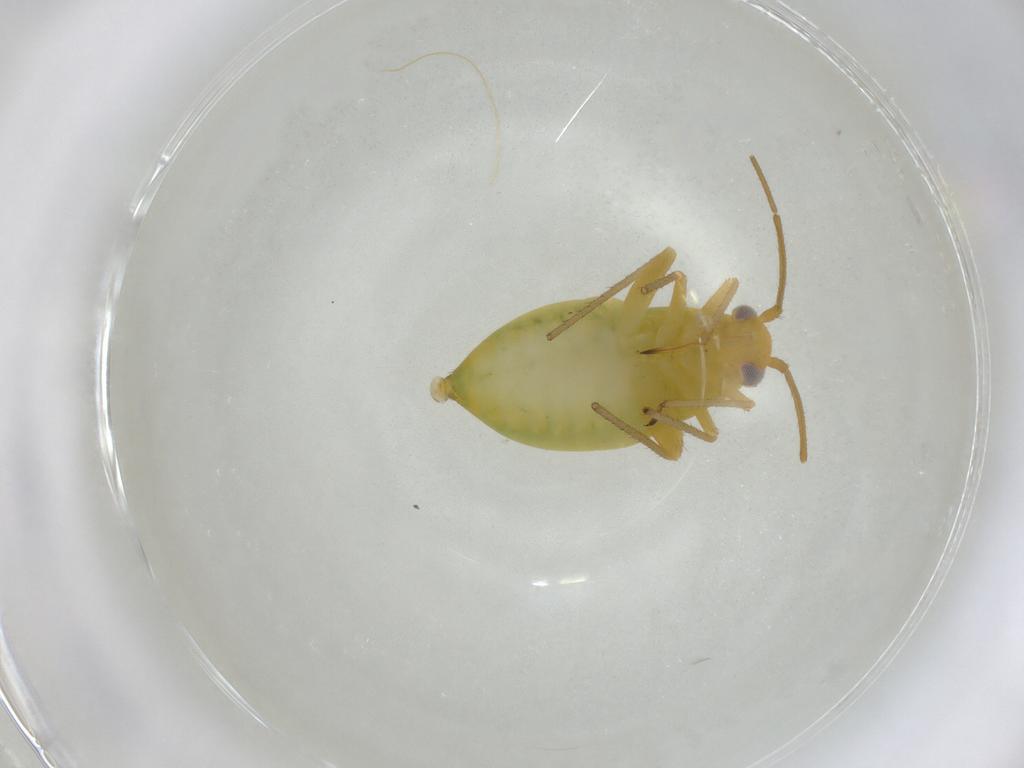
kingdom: Animalia
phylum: Arthropoda
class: Insecta
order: Hemiptera
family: Miridae
